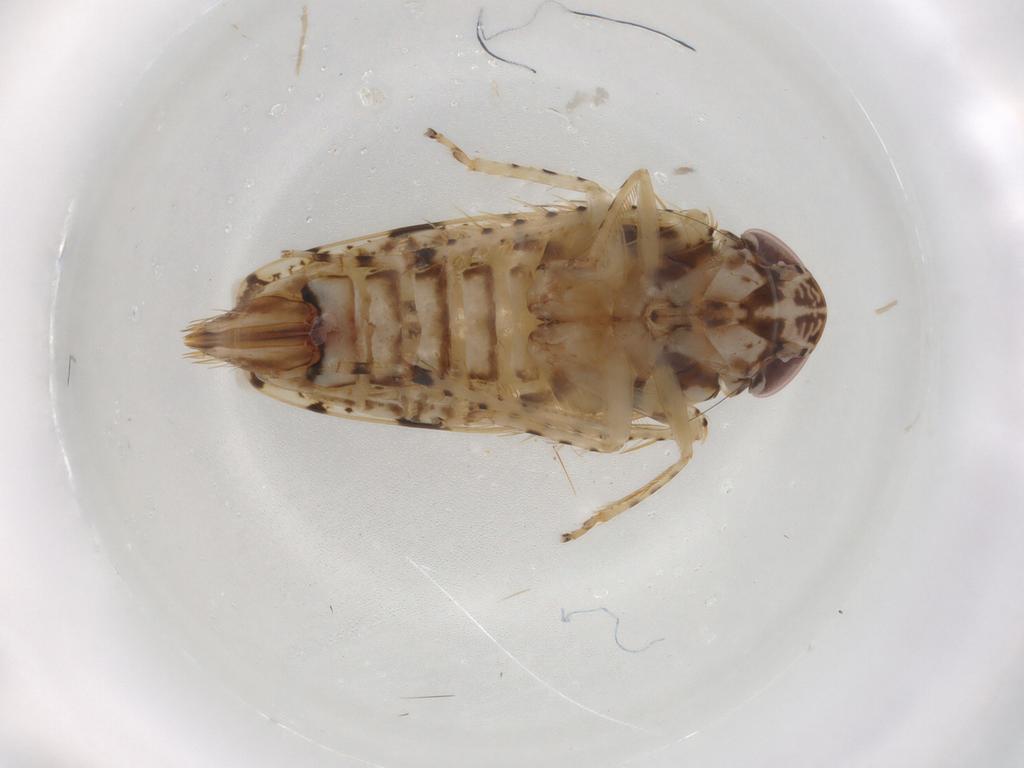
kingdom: Animalia
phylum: Arthropoda
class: Insecta
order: Hemiptera
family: Cicadellidae
